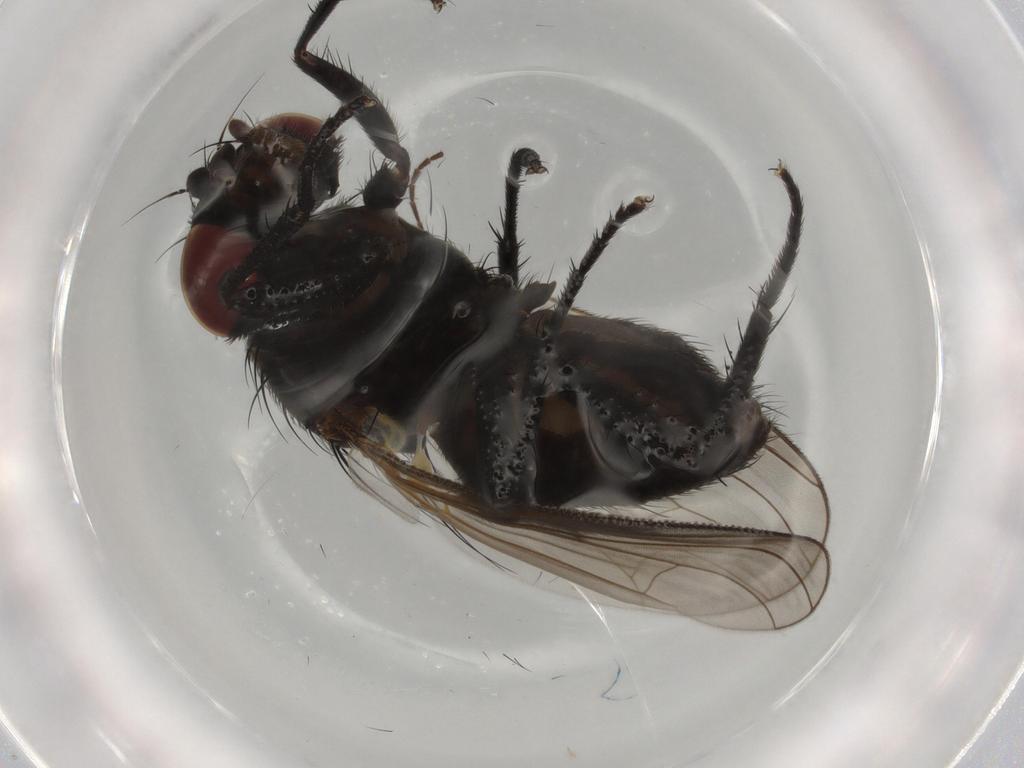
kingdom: Animalia
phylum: Arthropoda
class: Insecta
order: Diptera
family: Fannia
